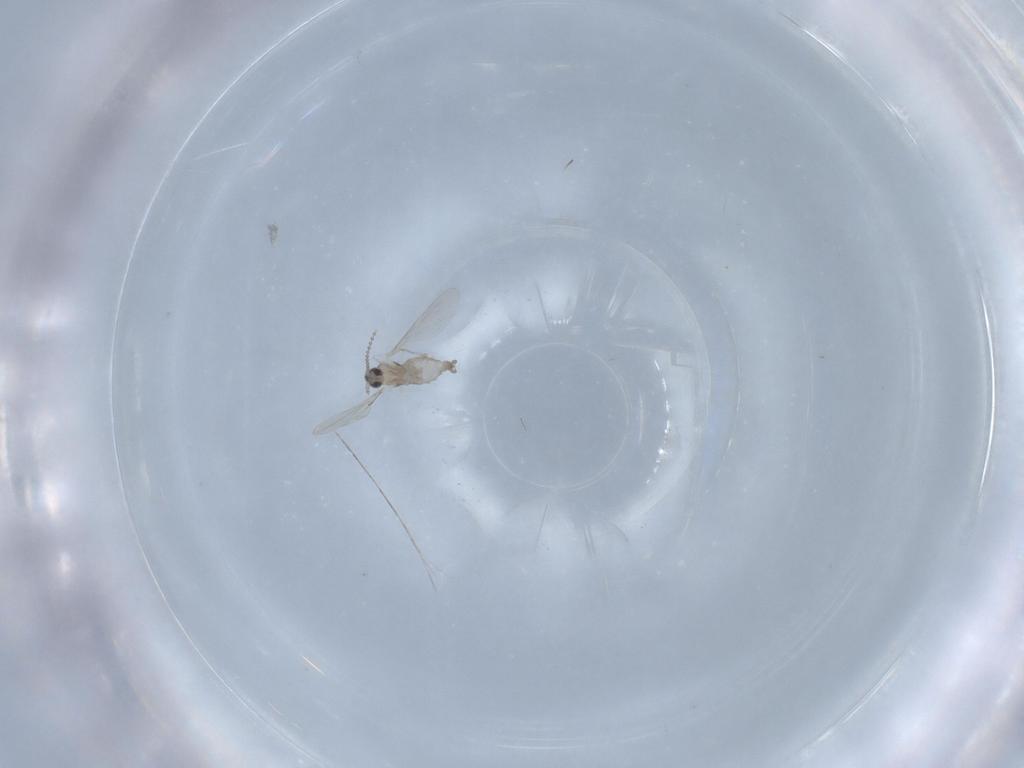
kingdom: Animalia
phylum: Arthropoda
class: Insecta
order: Diptera
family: Cecidomyiidae
